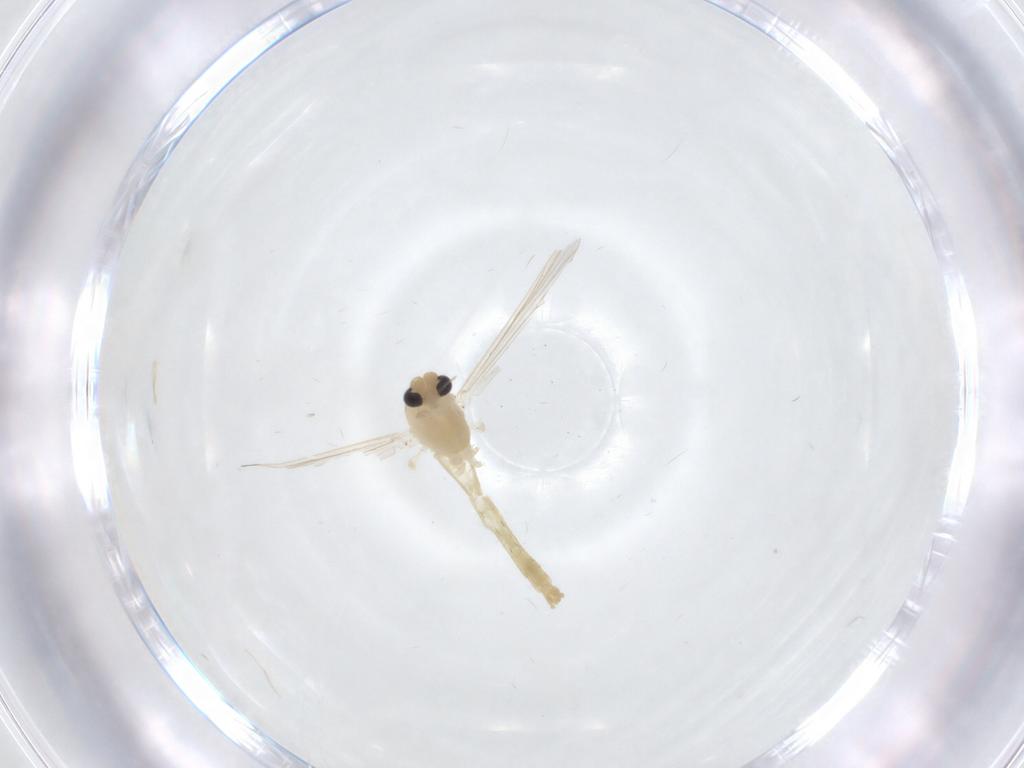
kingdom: Animalia
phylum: Arthropoda
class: Insecta
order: Diptera
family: Chironomidae
